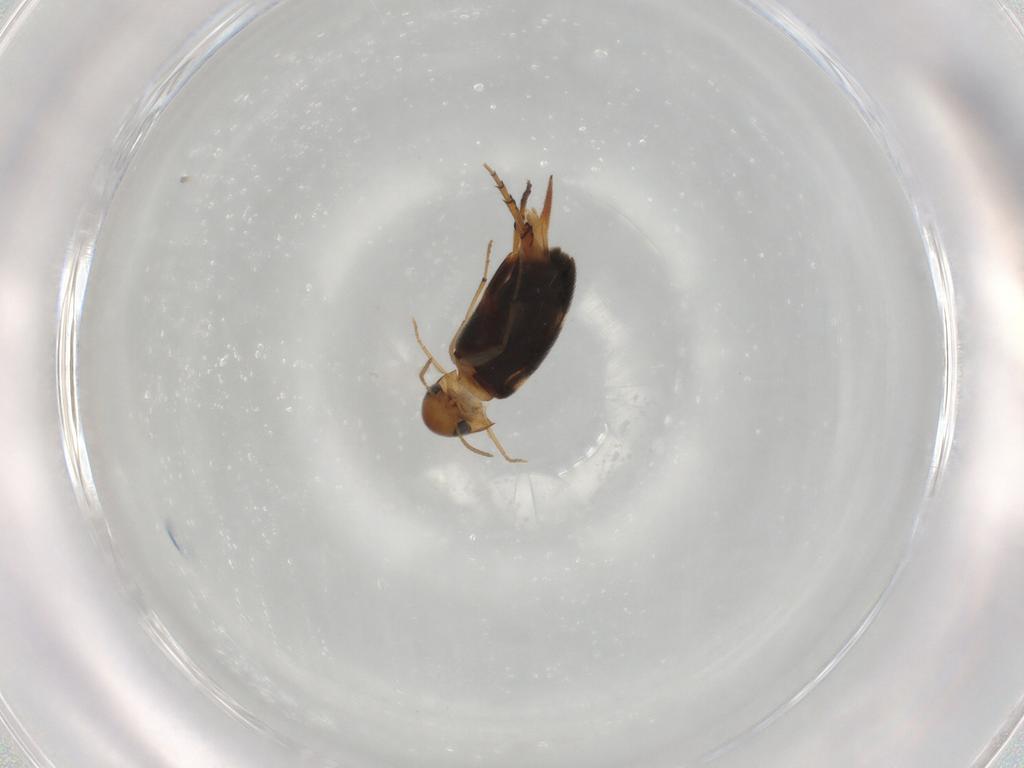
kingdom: Animalia
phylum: Arthropoda
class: Insecta
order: Coleoptera
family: Mordellidae
